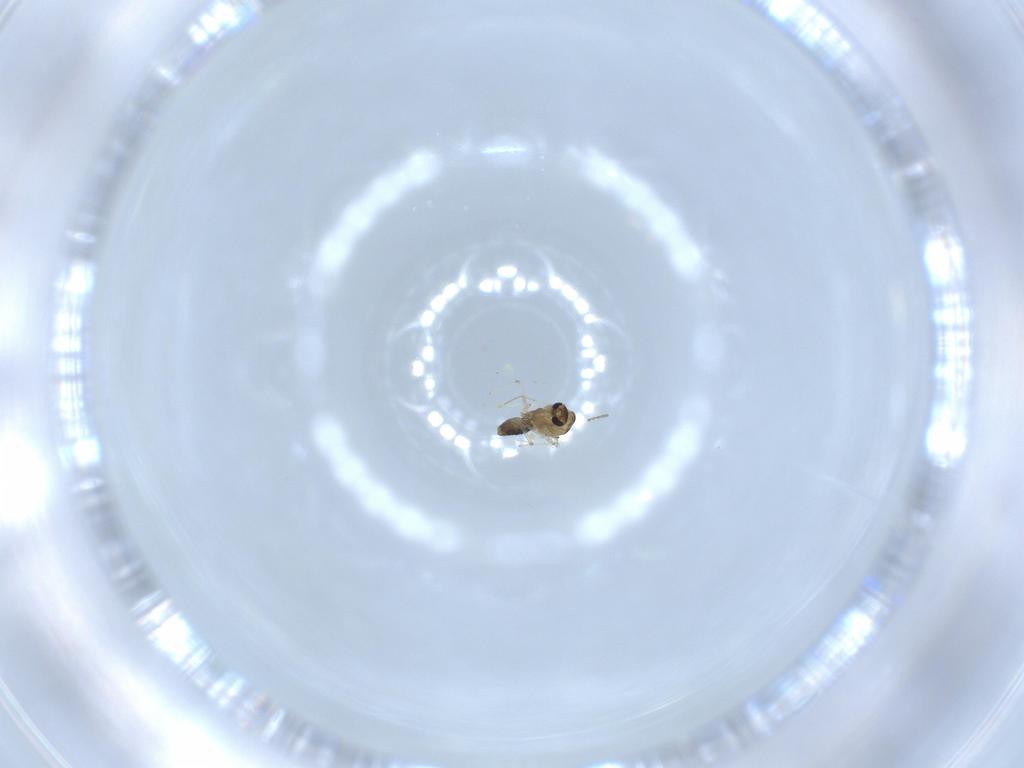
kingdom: Animalia
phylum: Arthropoda
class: Insecta
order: Diptera
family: Chironomidae
